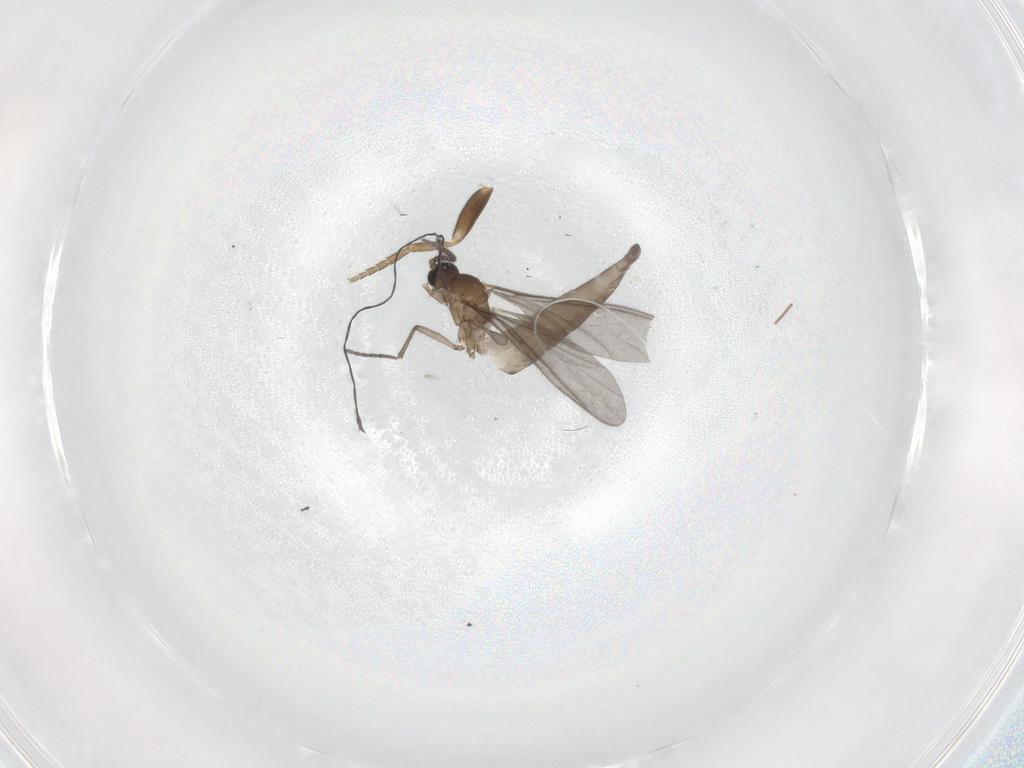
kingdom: Animalia
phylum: Arthropoda
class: Insecta
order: Diptera
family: Sciaridae
